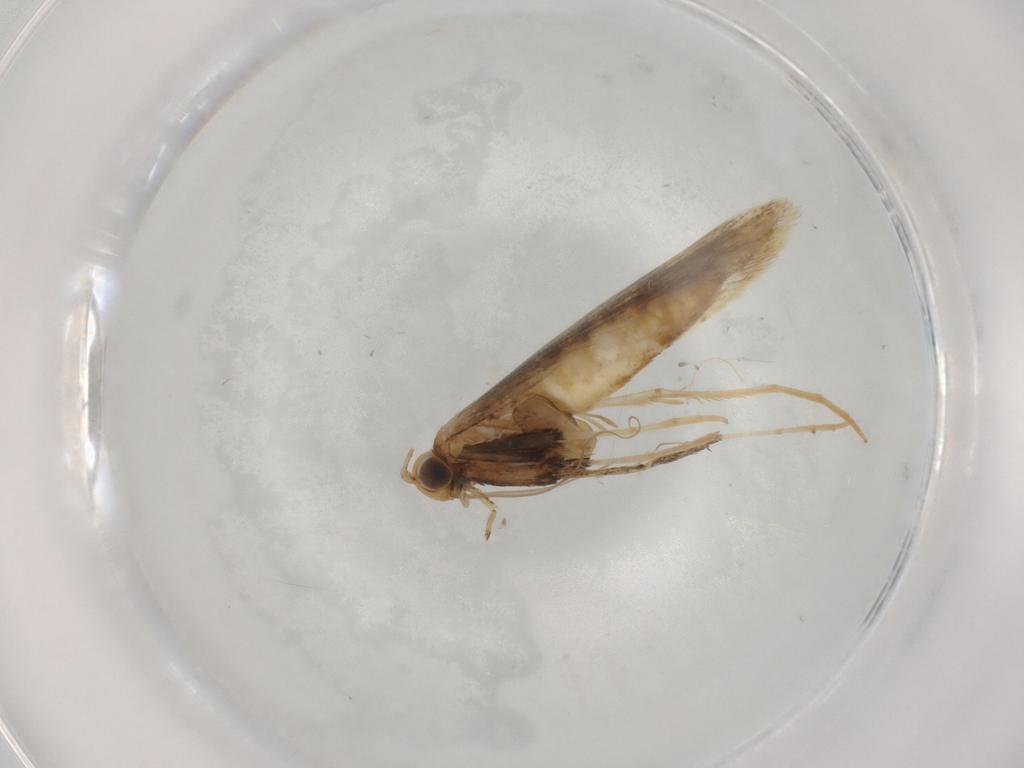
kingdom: Animalia
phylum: Arthropoda
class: Insecta
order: Lepidoptera
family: Gracillariidae
